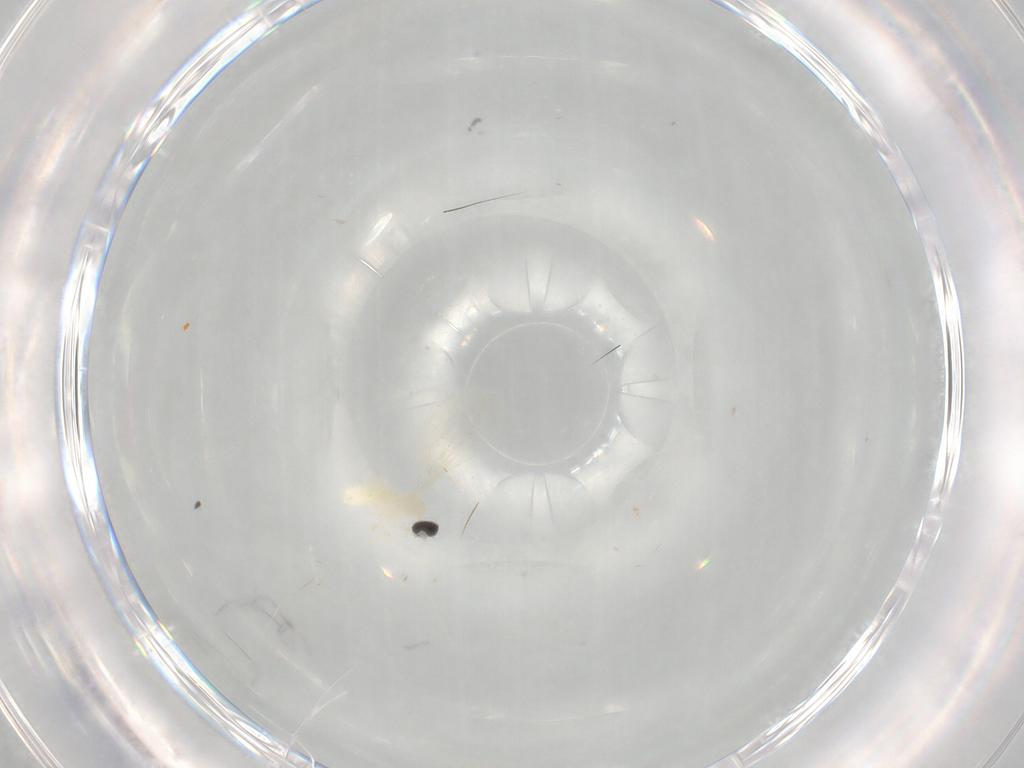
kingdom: Animalia
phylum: Arthropoda
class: Insecta
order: Diptera
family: Cecidomyiidae
